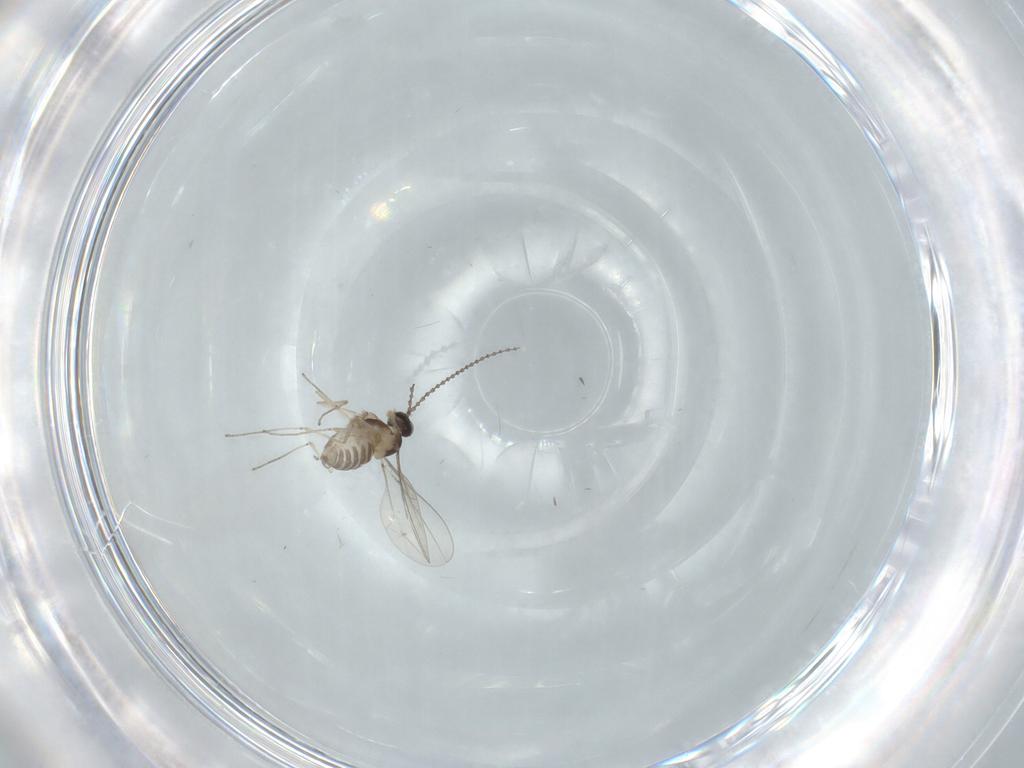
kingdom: Animalia
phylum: Arthropoda
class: Insecta
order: Diptera
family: Cecidomyiidae
